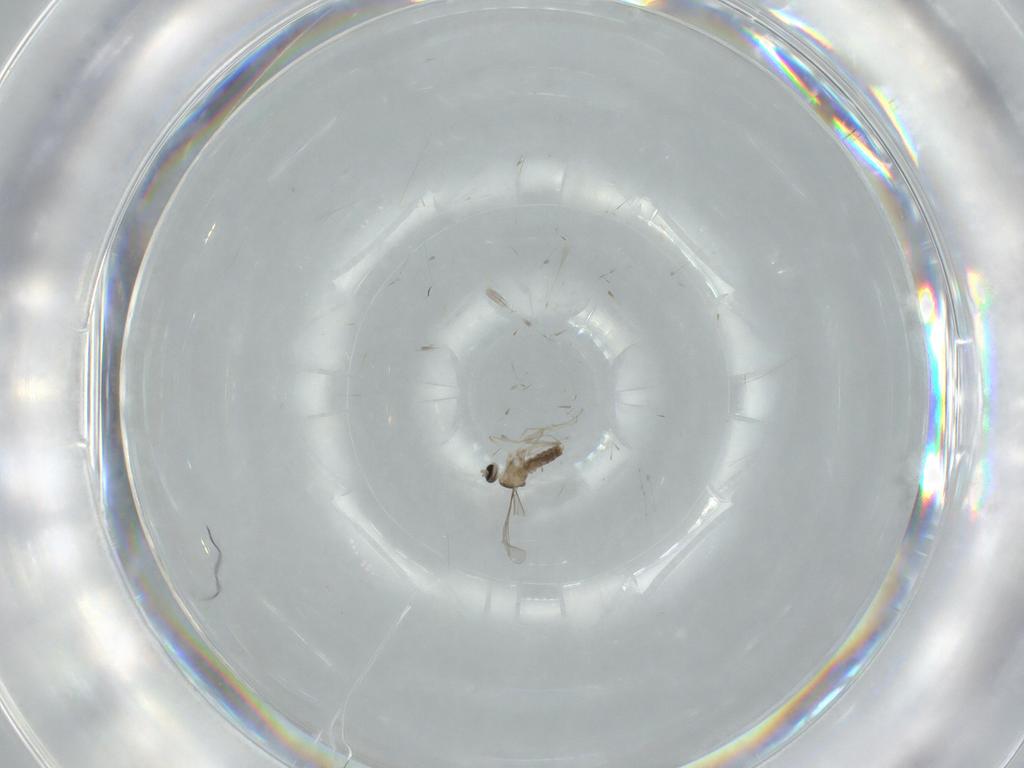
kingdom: Animalia
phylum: Arthropoda
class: Insecta
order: Diptera
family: Cecidomyiidae
